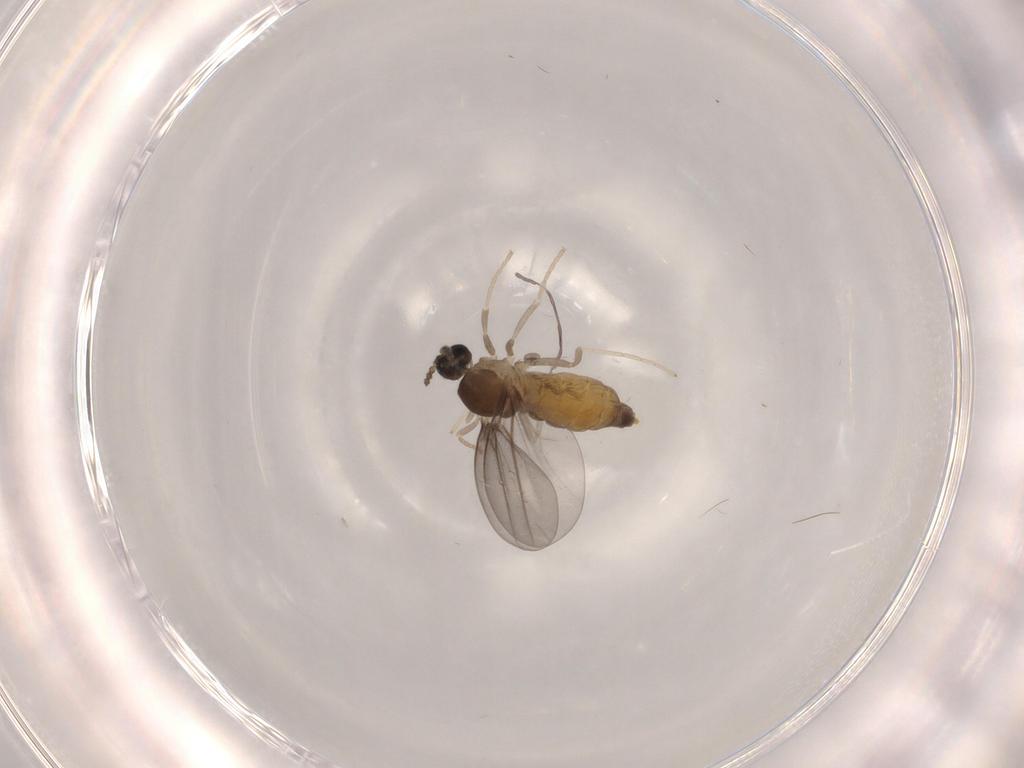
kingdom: Animalia
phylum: Arthropoda
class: Insecta
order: Diptera
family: Cecidomyiidae
